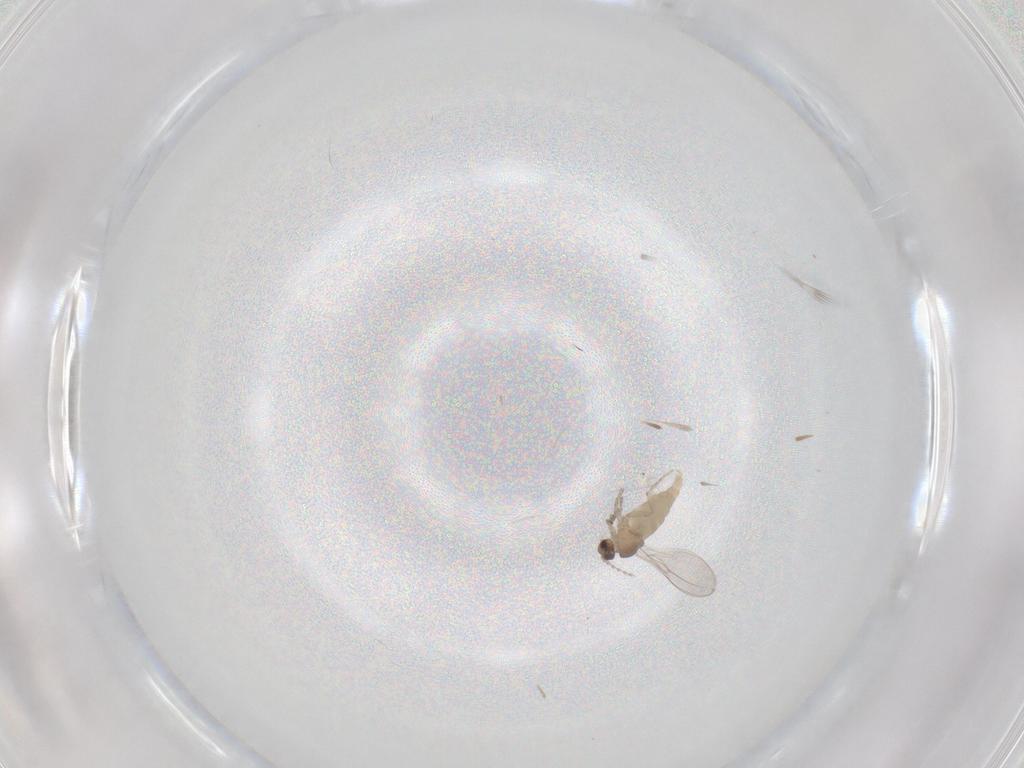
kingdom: Animalia
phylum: Arthropoda
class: Insecta
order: Diptera
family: Cecidomyiidae
